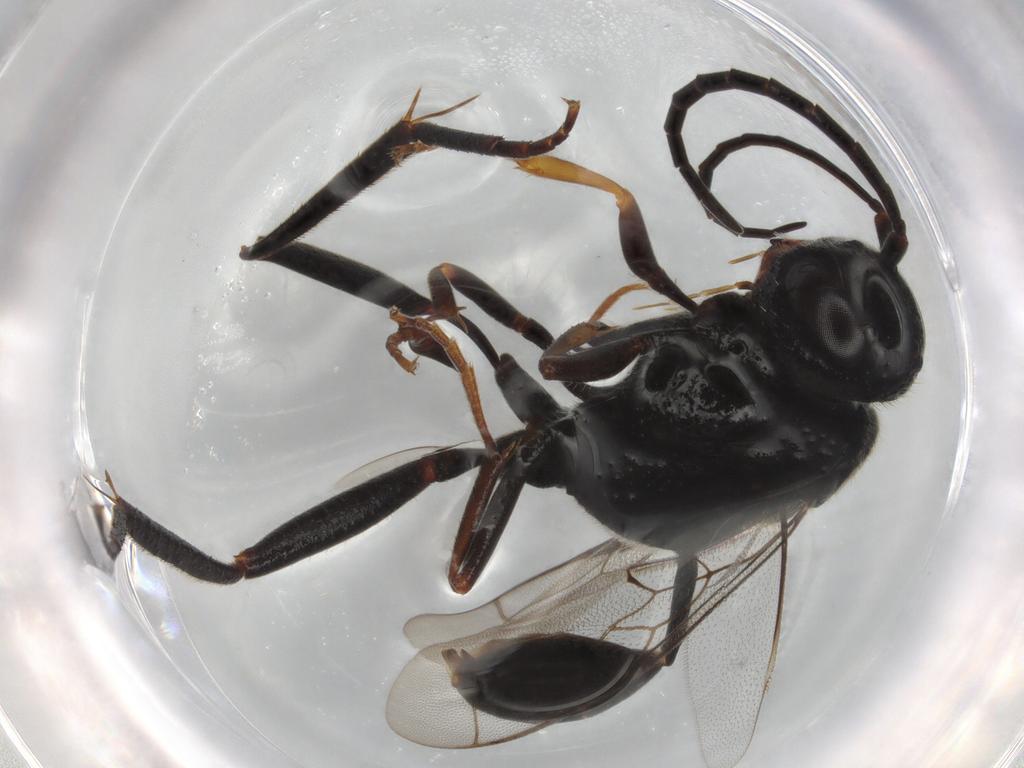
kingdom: Animalia
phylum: Arthropoda
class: Insecta
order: Hymenoptera
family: Evaniidae
